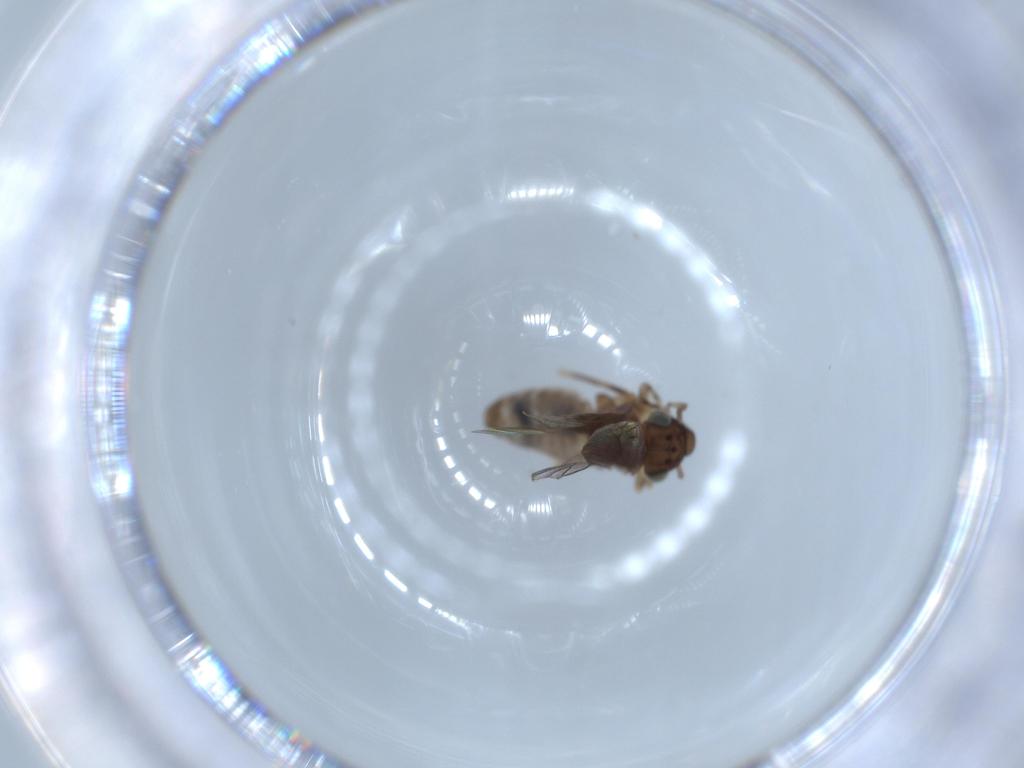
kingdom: Animalia
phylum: Arthropoda
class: Insecta
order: Psocodea
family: Lepidopsocidae
